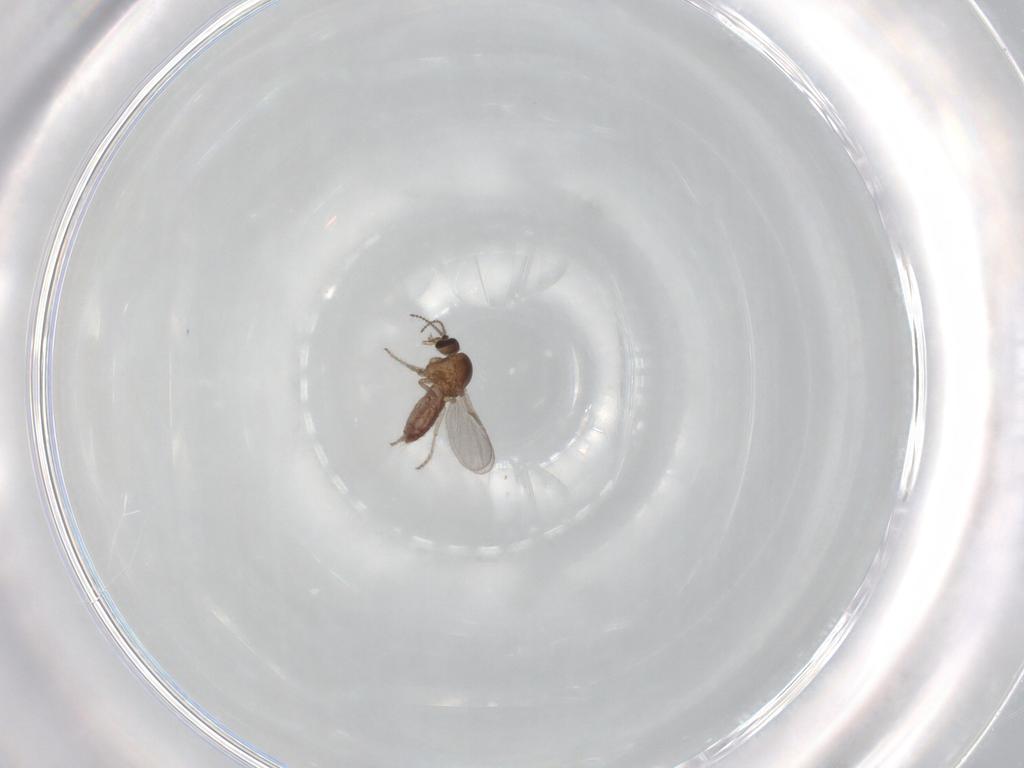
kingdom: Animalia
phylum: Arthropoda
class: Insecta
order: Diptera
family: Ceratopogonidae
